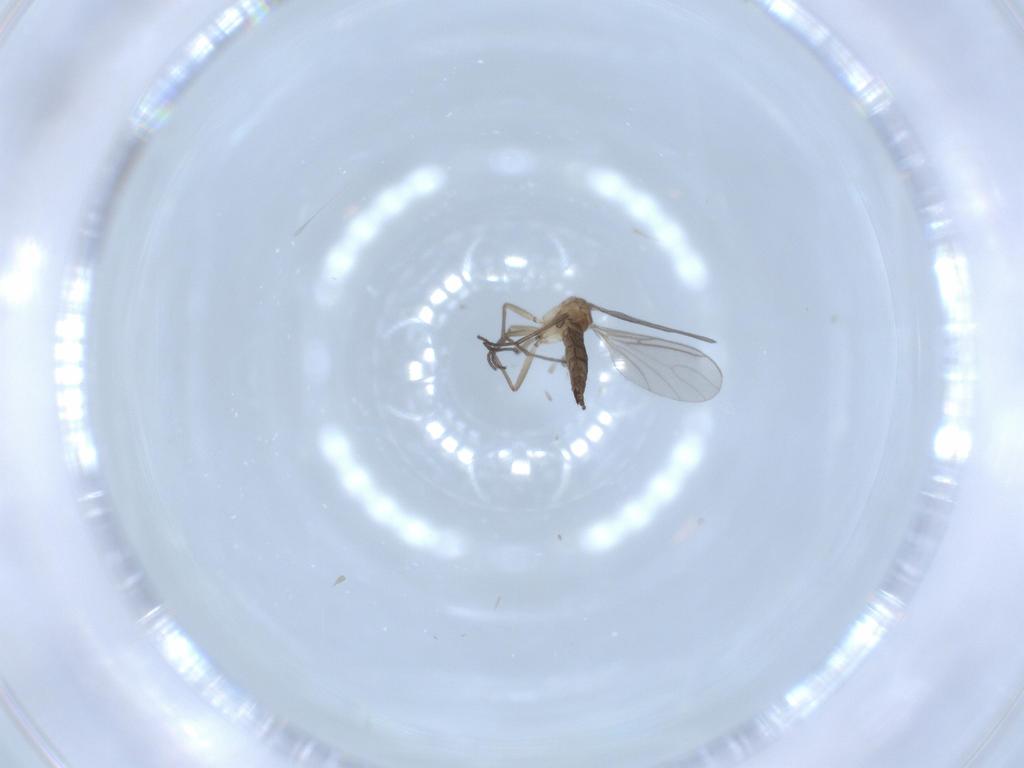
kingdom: Animalia
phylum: Arthropoda
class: Insecta
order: Diptera
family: Sciaridae
